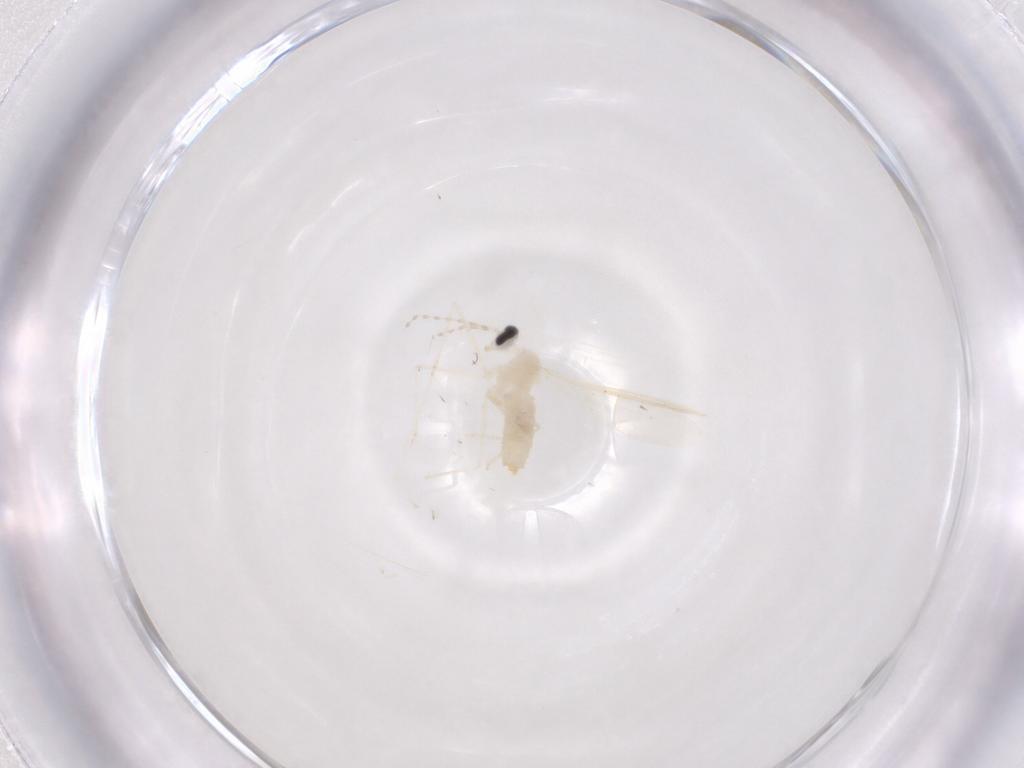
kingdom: Animalia
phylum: Arthropoda
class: Insecta
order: Diptera
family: Cecidomyiidae
